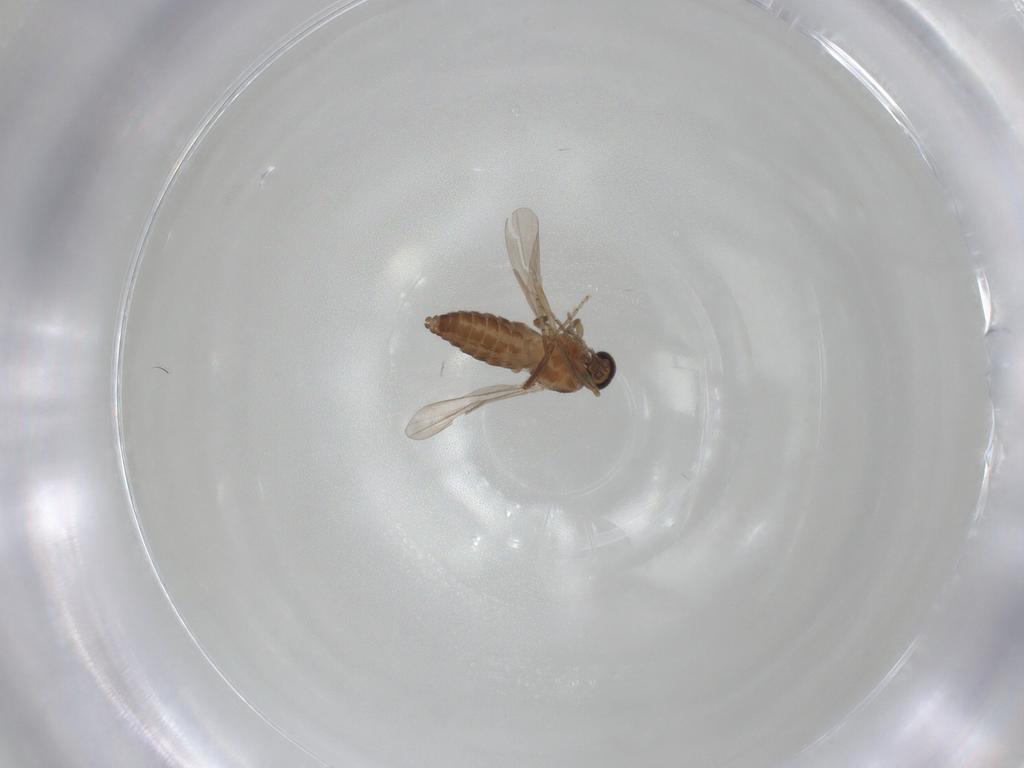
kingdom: Animalia
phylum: Arthropoda
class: Insecta
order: Diptera
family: Ceratopogonidae
